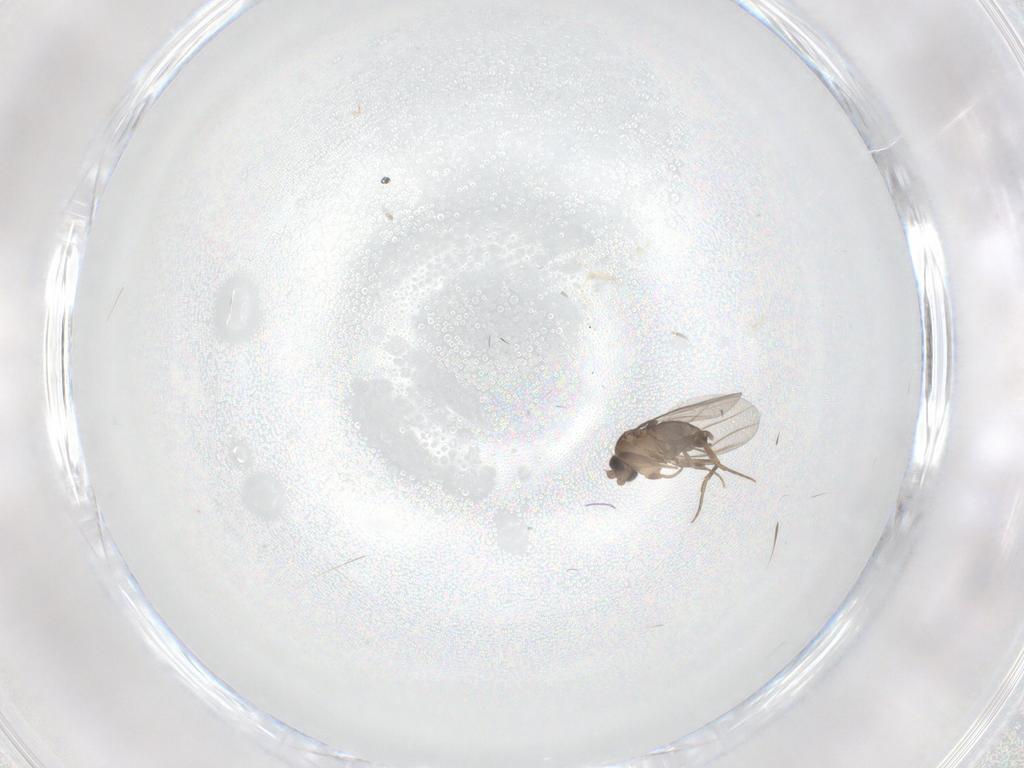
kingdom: Animalia
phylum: Arthropoda
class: Insecta
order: Diptera
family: Phoridae
